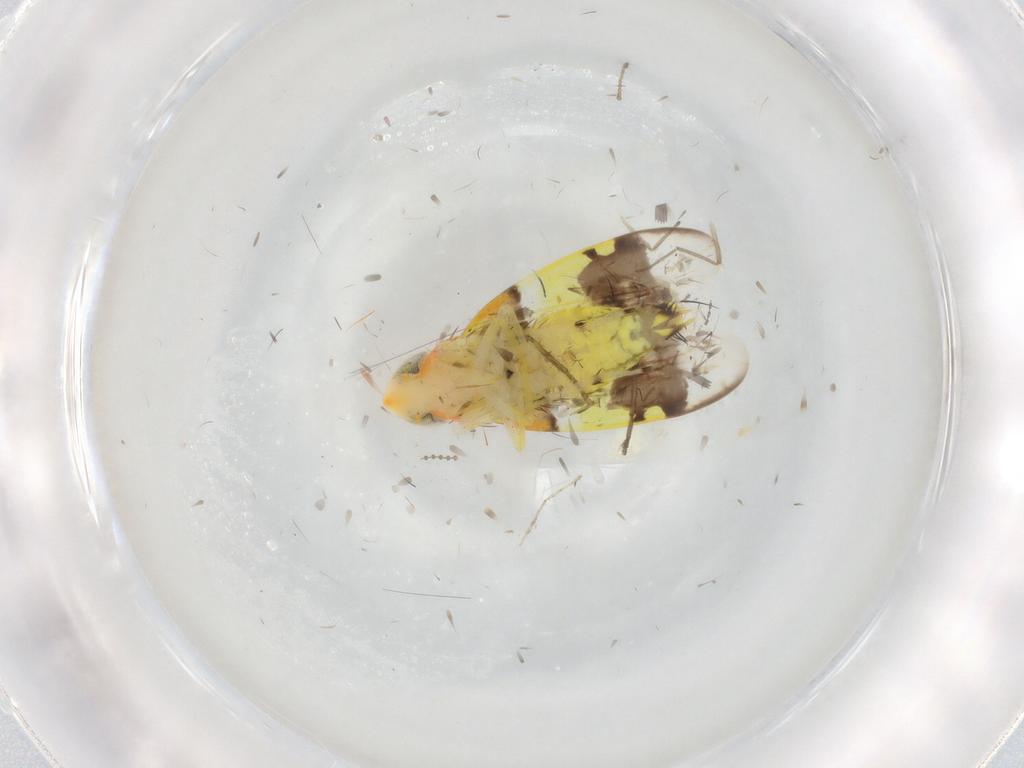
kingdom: Animalia
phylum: Arthropoda
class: Insecta
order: Hemiptera
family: Cicadellidae
